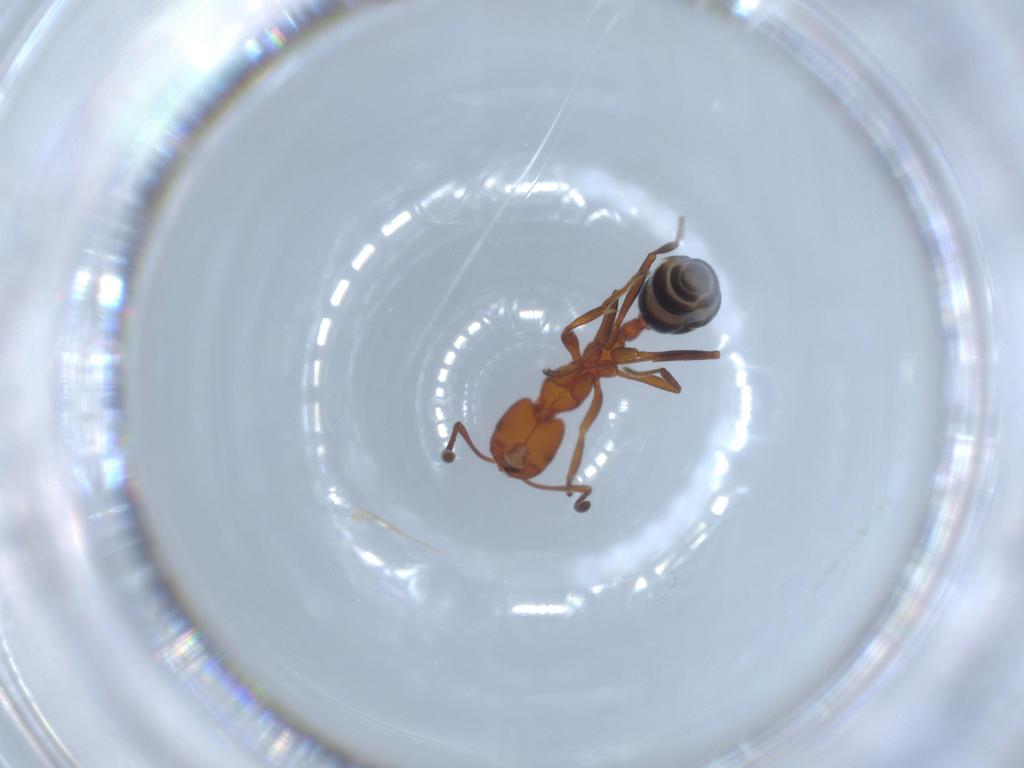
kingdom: Animalia
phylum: Arthropoda
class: Insecta
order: Hymenoptera
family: Formicidae
